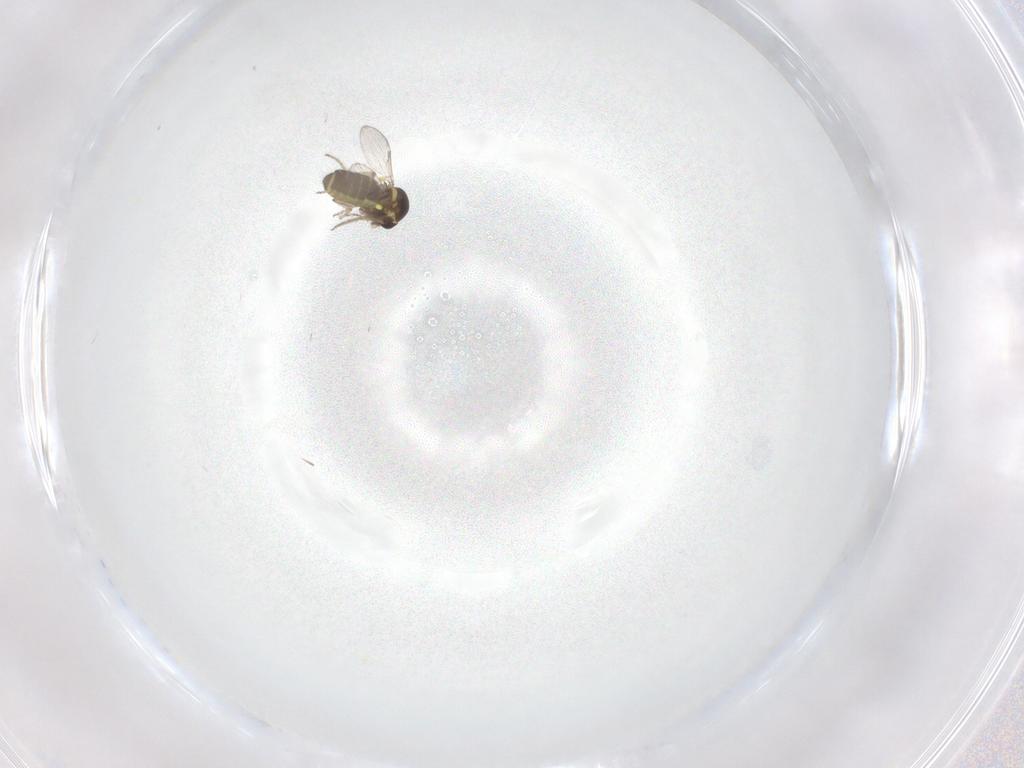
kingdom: Animalia
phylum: Arthropoda
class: Insecta
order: Diptera
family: Ceratopogonidae
